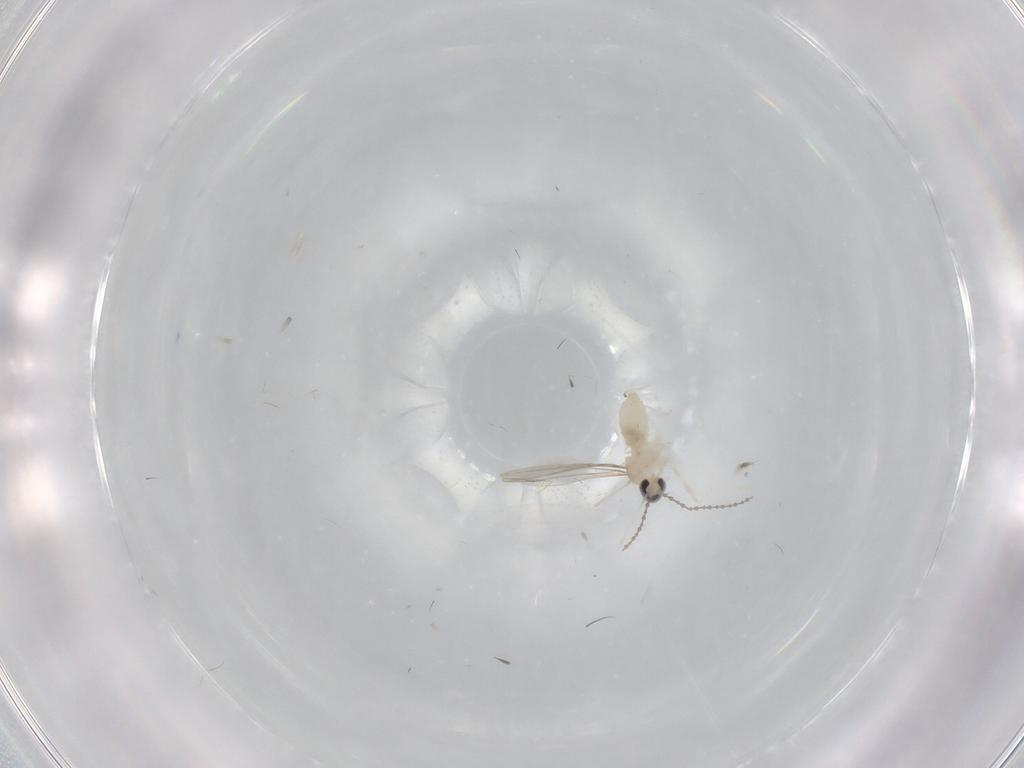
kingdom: Animalia
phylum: Arthropoda
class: Insecta
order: Diptera
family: Cecidomyiidae
